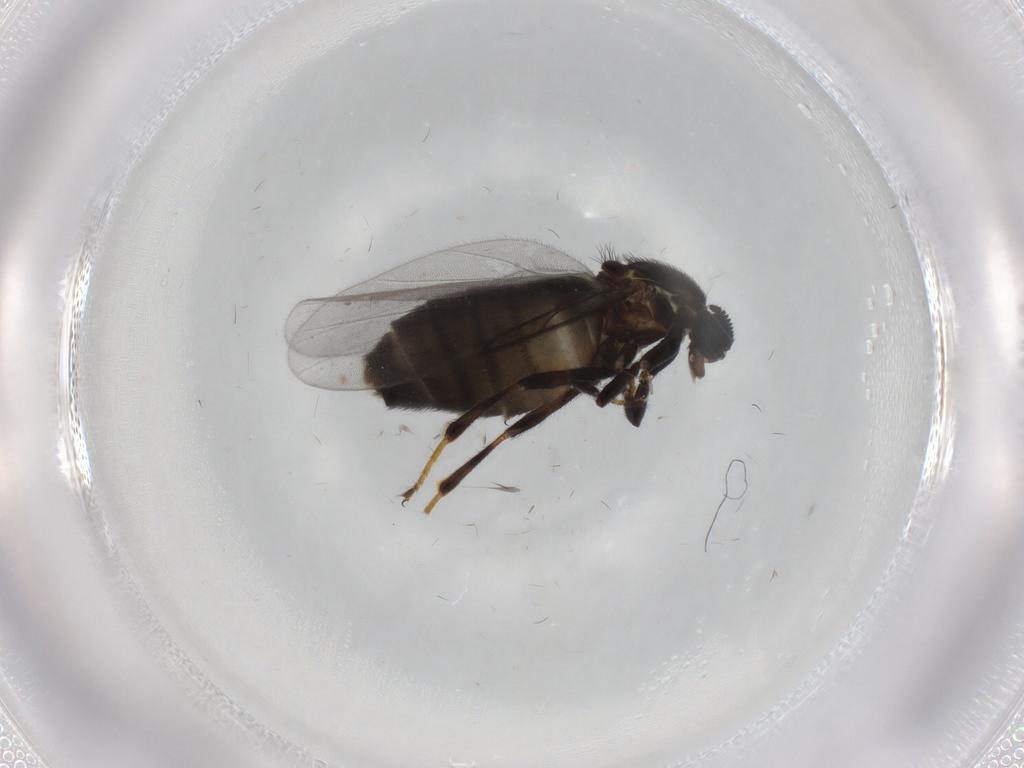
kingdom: Animalia
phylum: Arthropoda
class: Insecta
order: Diptera
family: Scatopsidae
